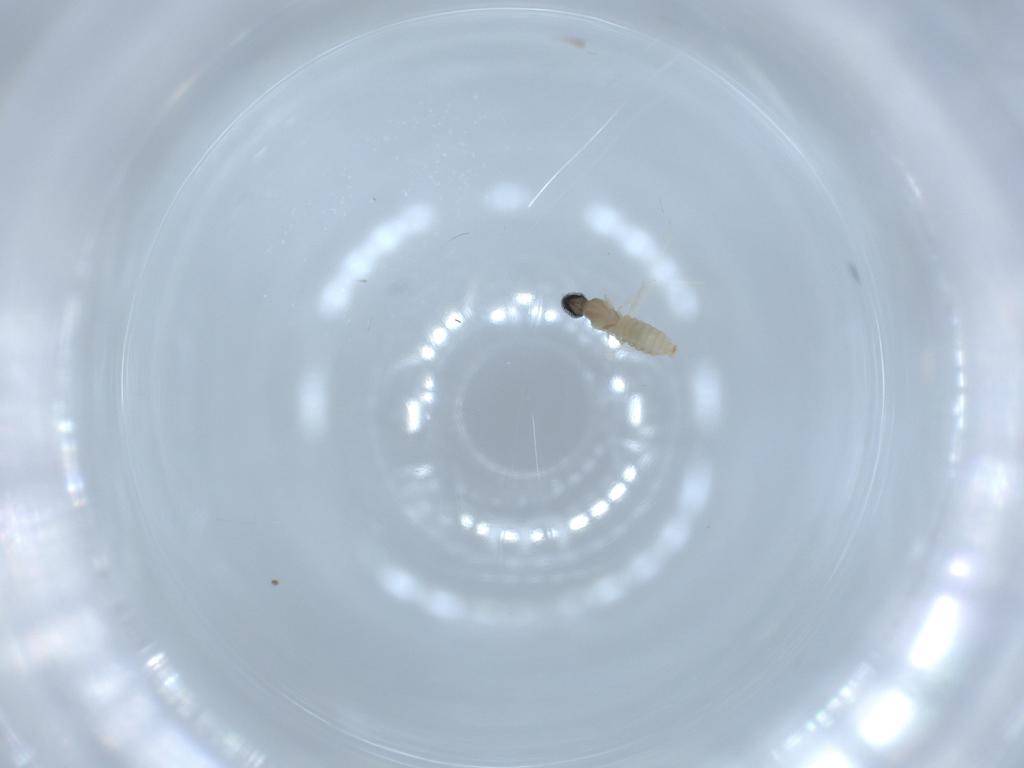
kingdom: Animalia
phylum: Arthropoda
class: Insecta
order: Diptera
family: Cecidomyiidae
